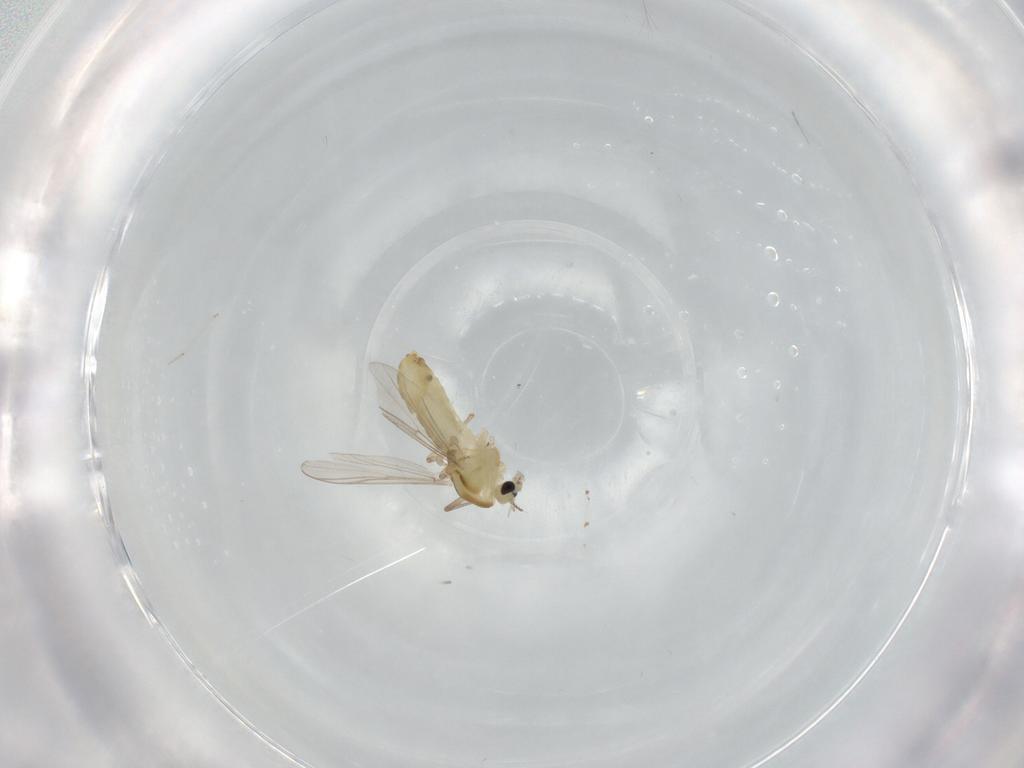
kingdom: Animalia
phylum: Arthropoda
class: Insecta
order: Diptera
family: Chironomidae
